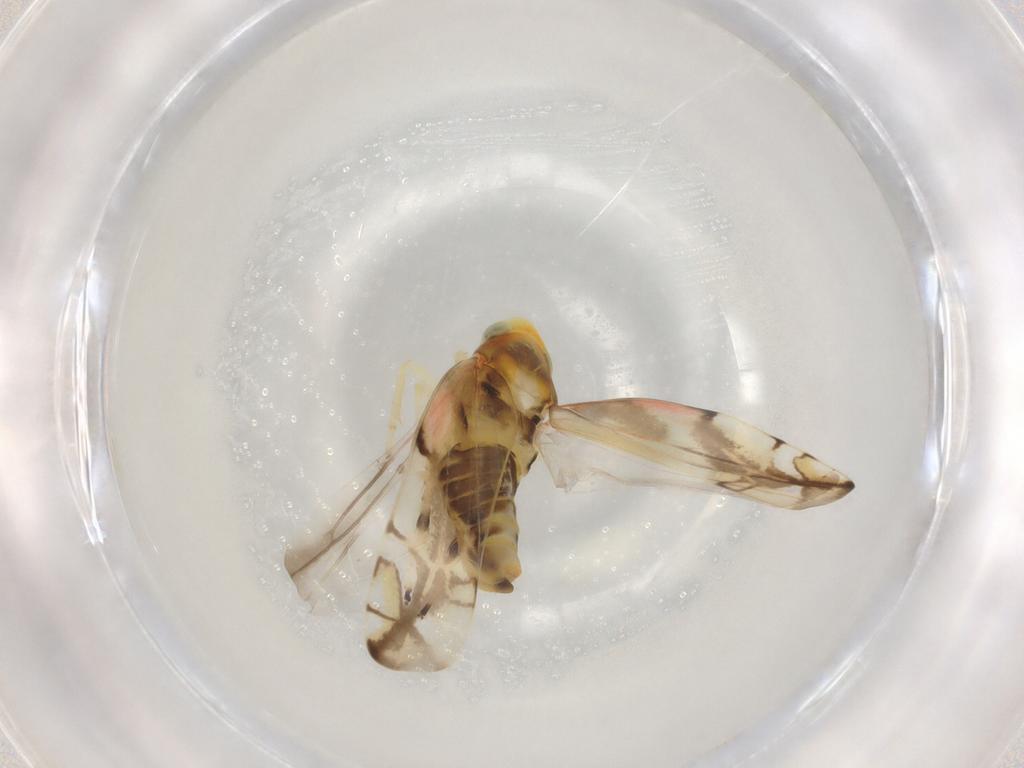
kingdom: Animalia
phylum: Arthropoda
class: Insecta
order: Hemiptera
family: Cicadellidae
